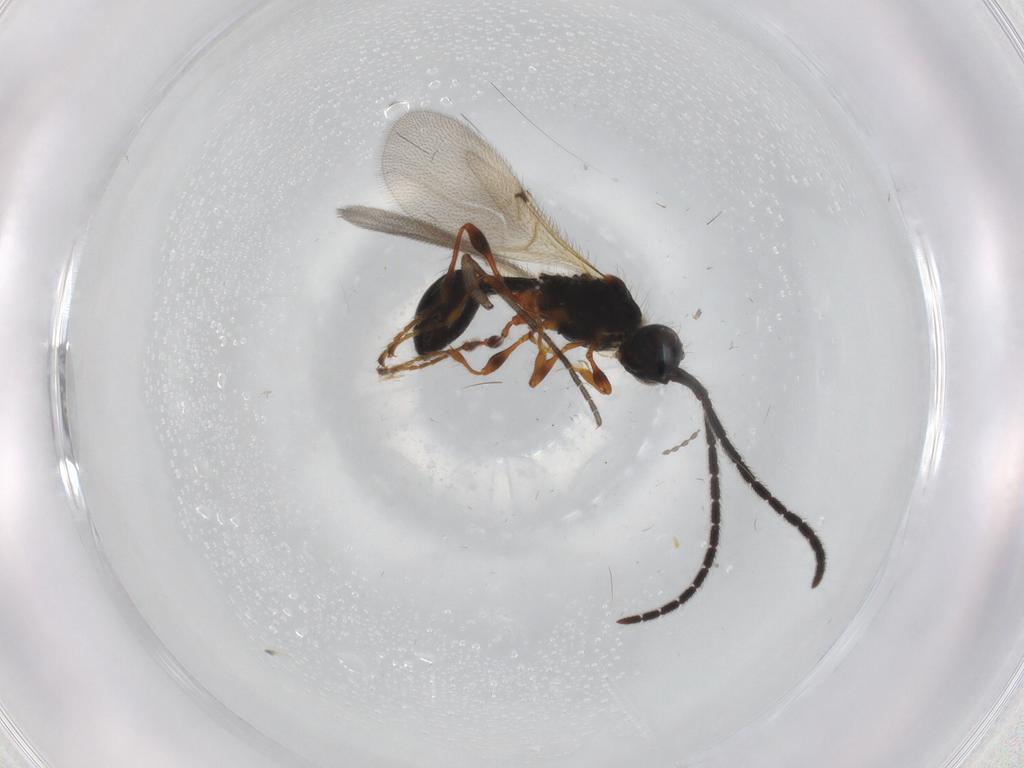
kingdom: Animalia
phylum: Arthropoda
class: Insecta
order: Hymenoptera
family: Diapriidae
